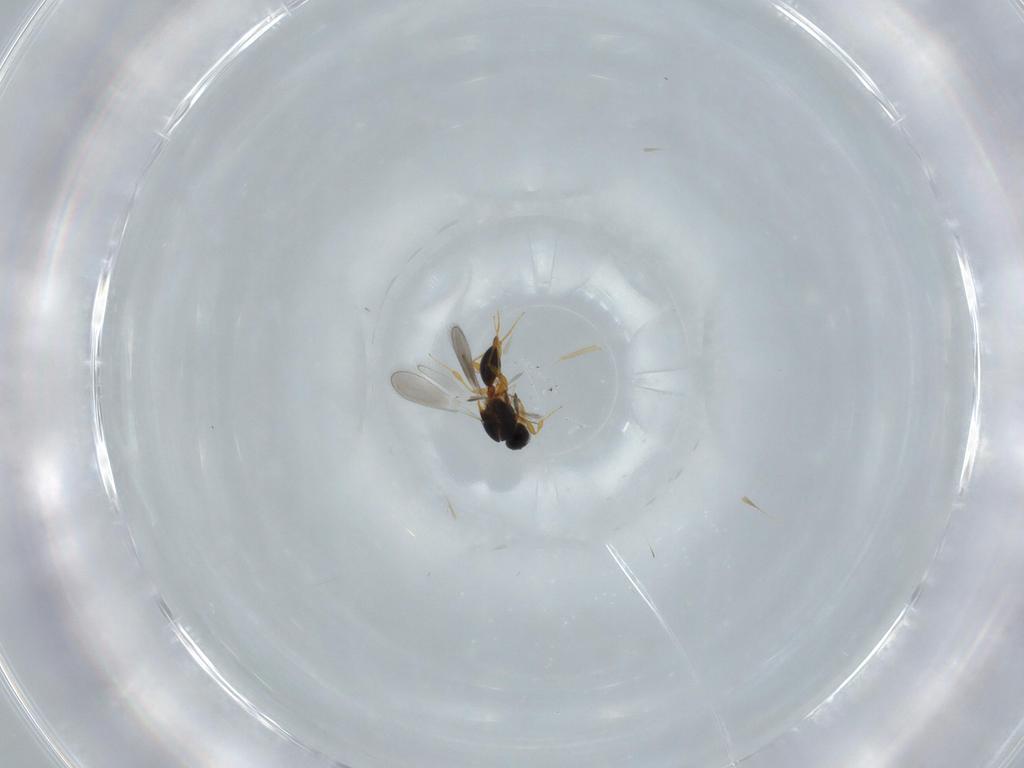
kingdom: Animalia
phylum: Arthropoda
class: Insecta
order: Hymenoptera
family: Platygastridae
